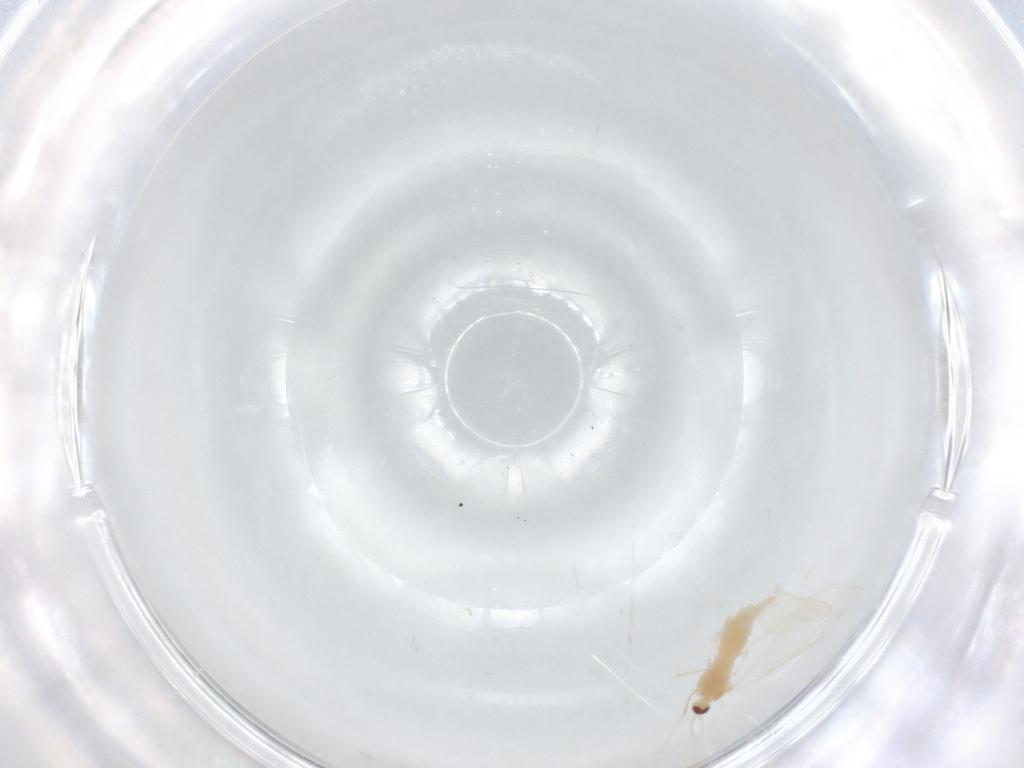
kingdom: Animalia
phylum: Arthropoda
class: Insecta
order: Diptera
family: Cecidomyiidae
